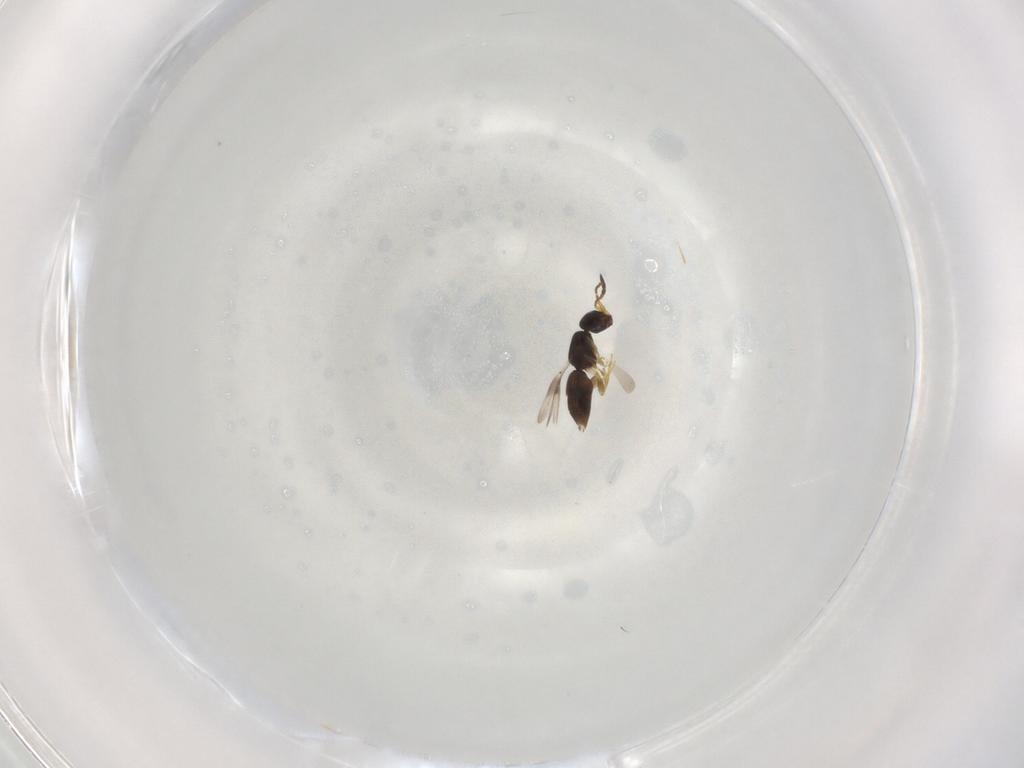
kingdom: Animalia
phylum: Arthropoda
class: Insecta
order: Hymenoptera
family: Ceraphronidae
